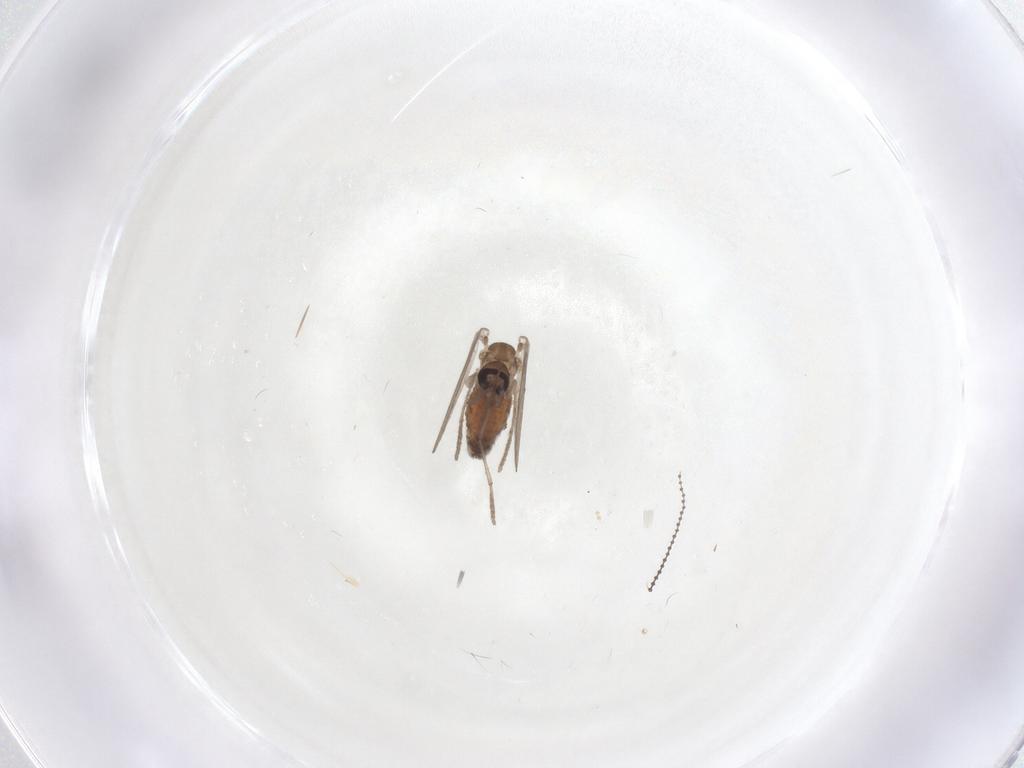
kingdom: Animalia
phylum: Arthropoda
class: Insecta
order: Diptera
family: Psychodidae
